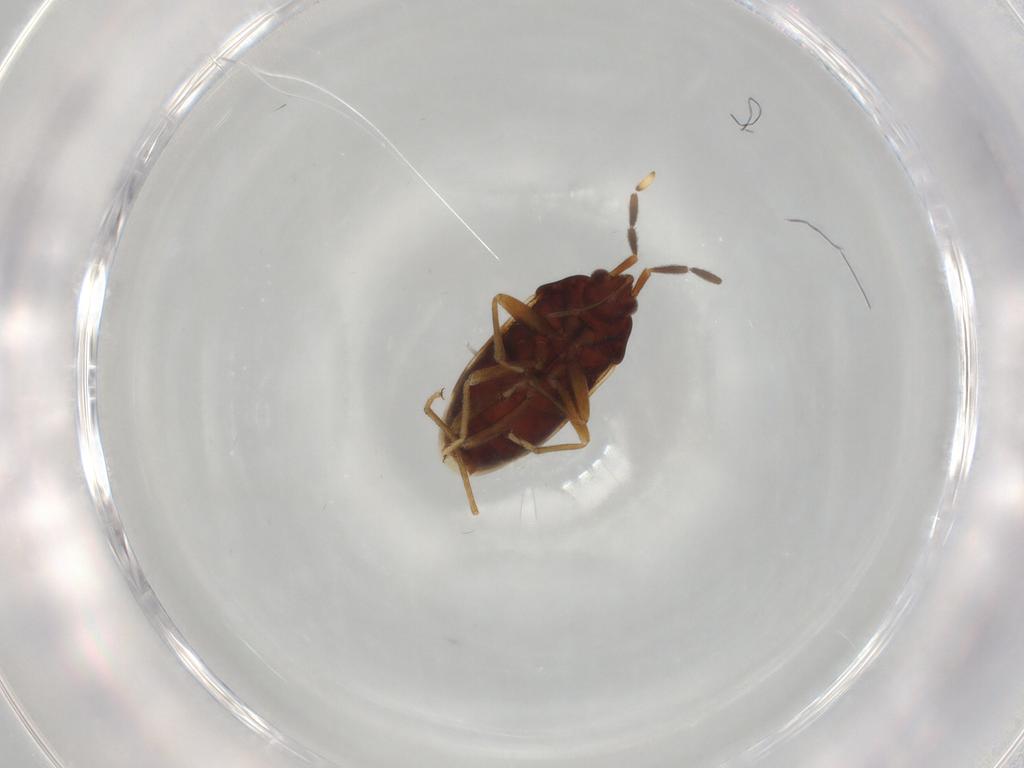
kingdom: Animalia
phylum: Arthropoda
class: Insecta
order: Hemiptera
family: Rhyparochromidae
